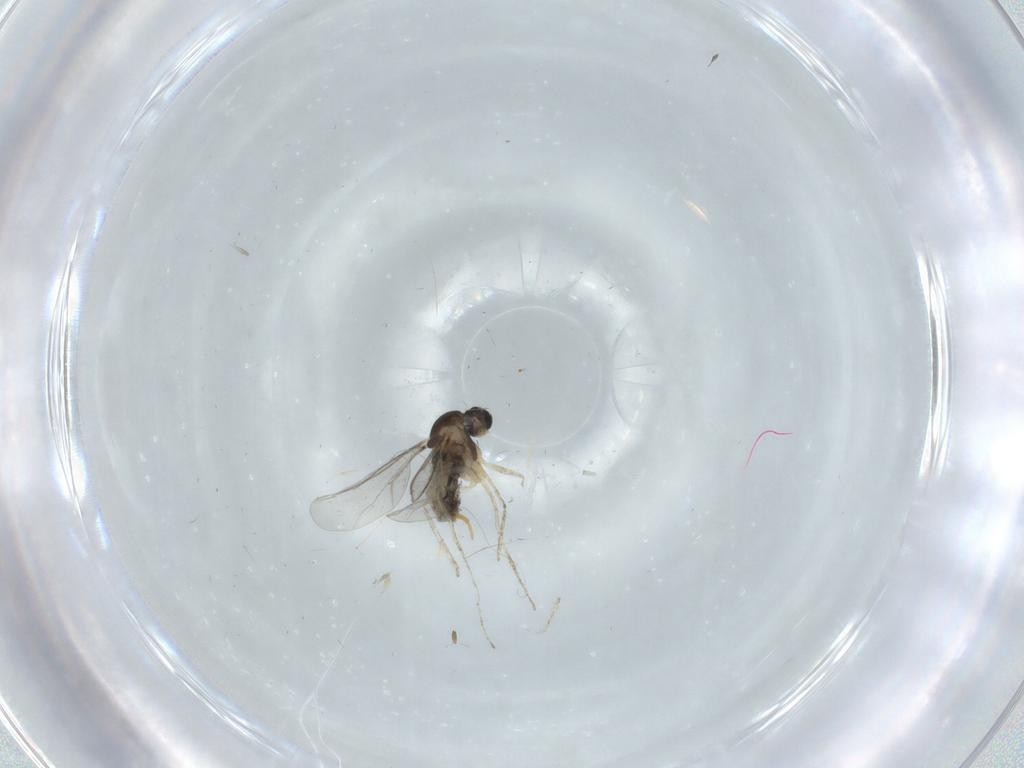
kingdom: Animalia
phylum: Arthropoda
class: Insecta
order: Diptera
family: Cecidomyiidae
